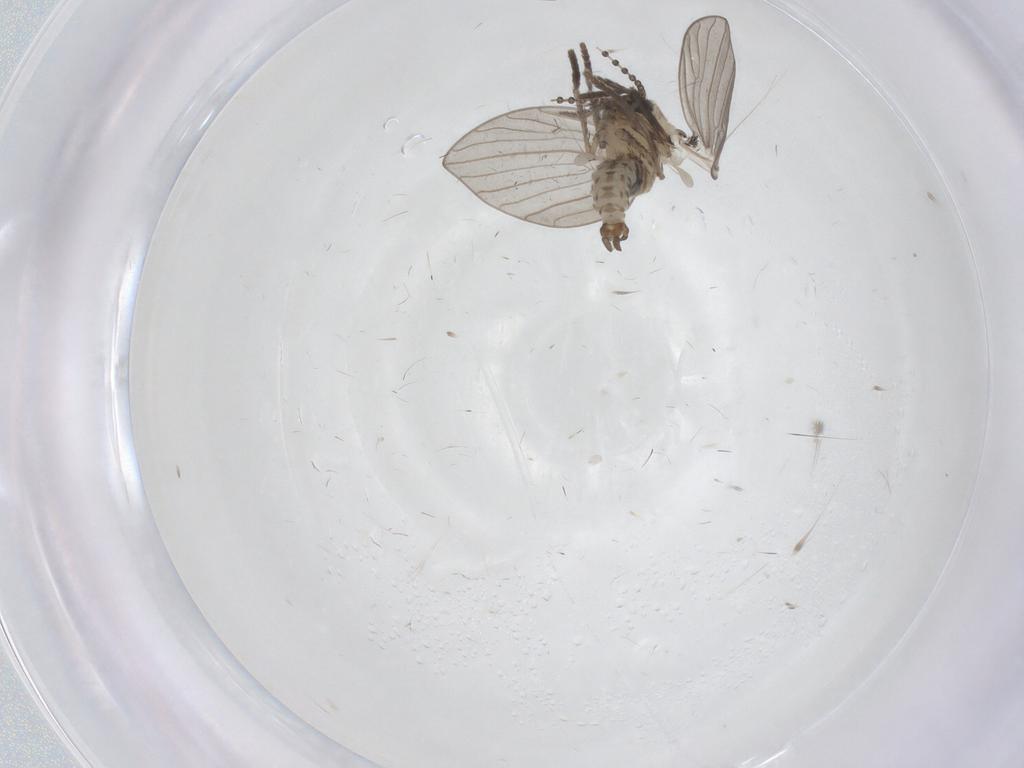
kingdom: Animalia
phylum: Arthropoda
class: Insecta
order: Diptera
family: Psychodidae
